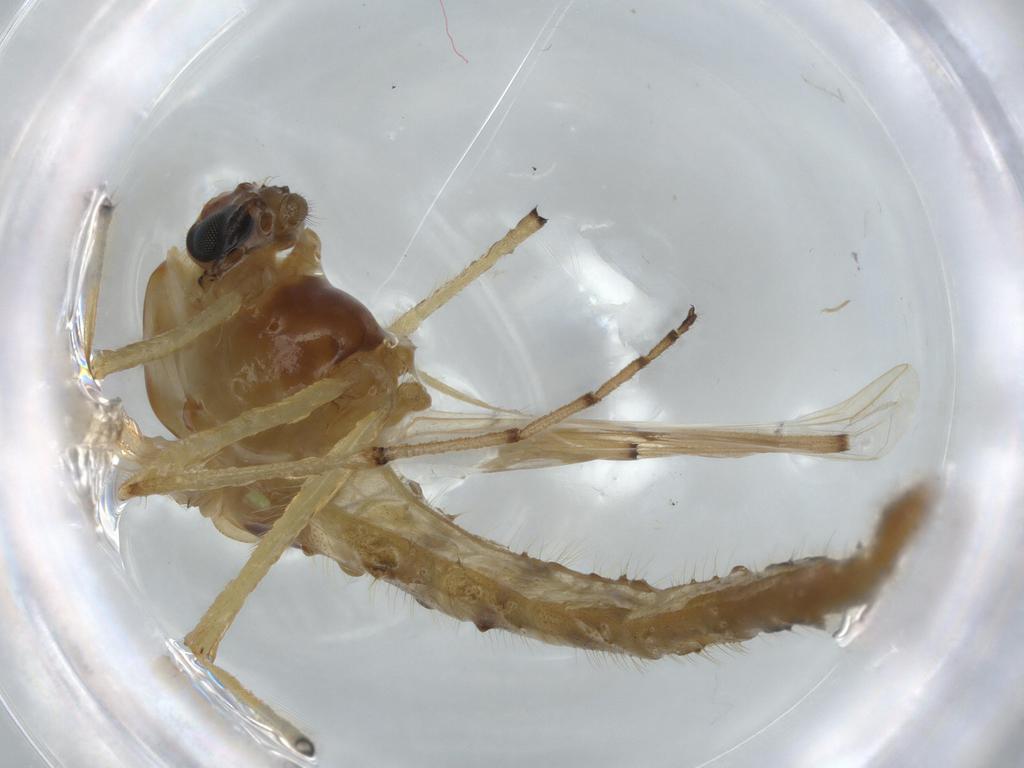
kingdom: Animalia
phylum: Arthropoda
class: Insecta
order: Diptera
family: Chironomidae
